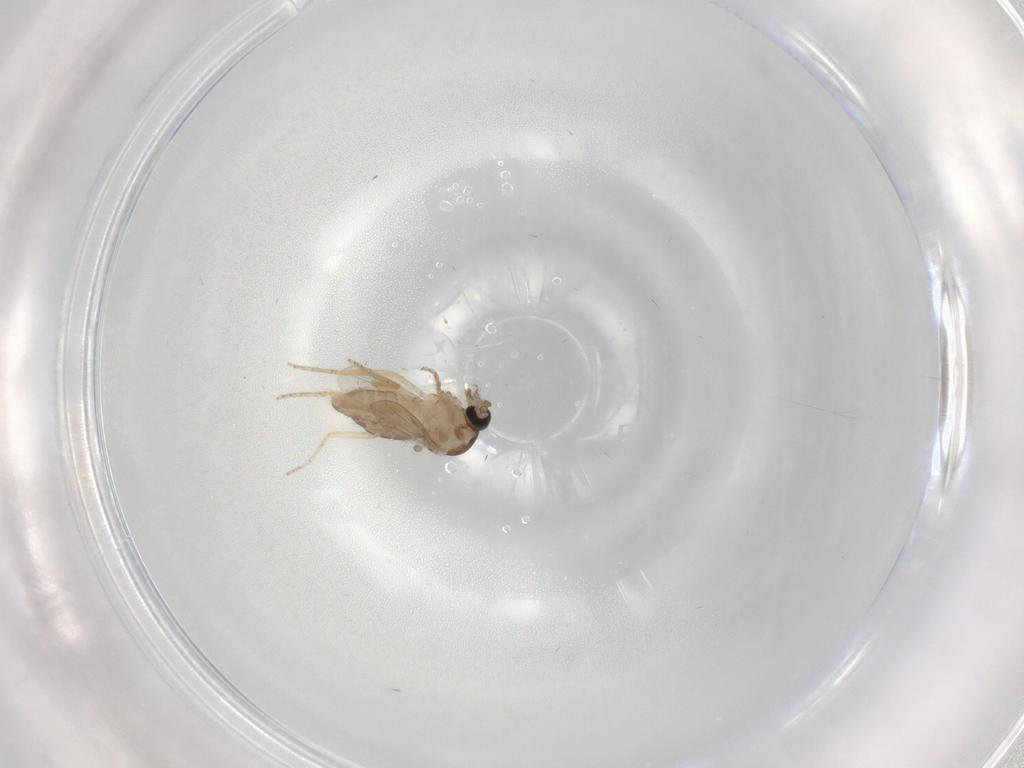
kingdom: Animalia
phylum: Arthropoda
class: Insecta
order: Diptera
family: Ceratopogonidae
